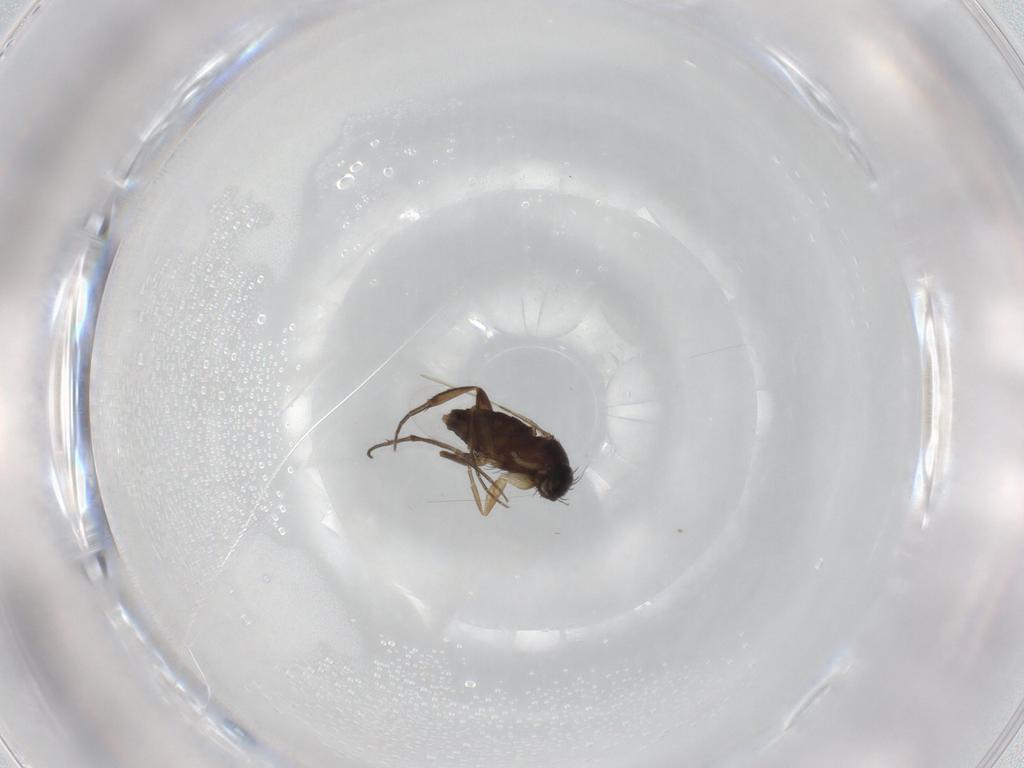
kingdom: Animalia
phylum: Arthropoda
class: Insecta
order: Diptera
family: Phoridae
